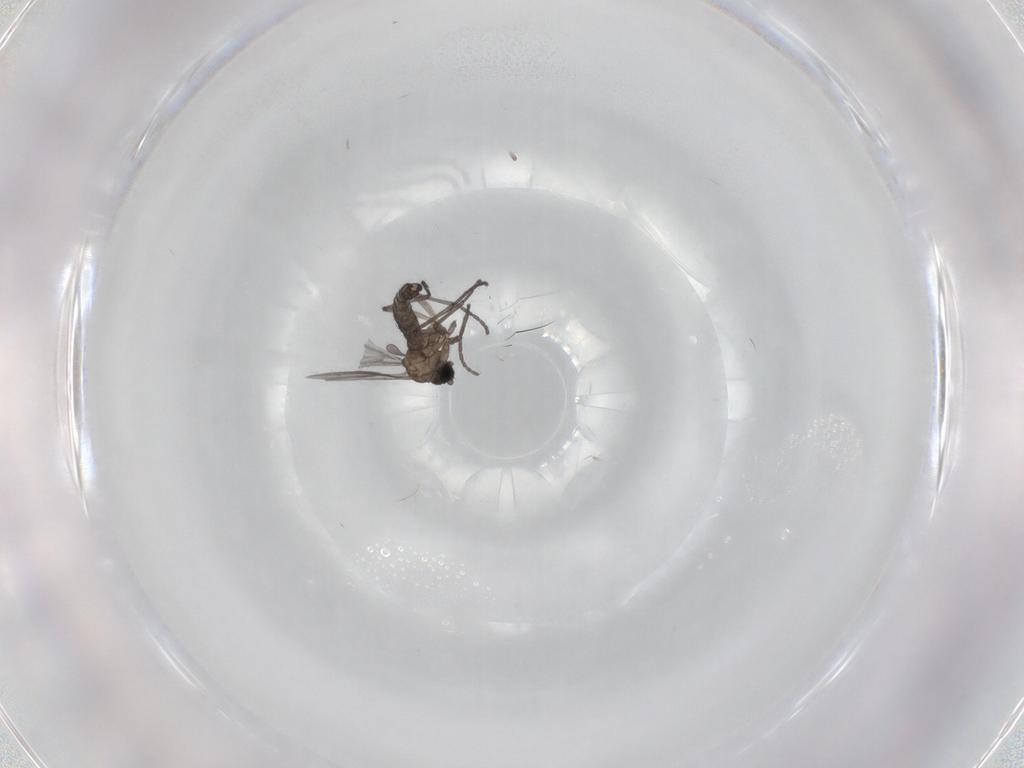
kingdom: Animalia
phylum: Arthropoda
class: Insecta
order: Diptera
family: Sciaridae
